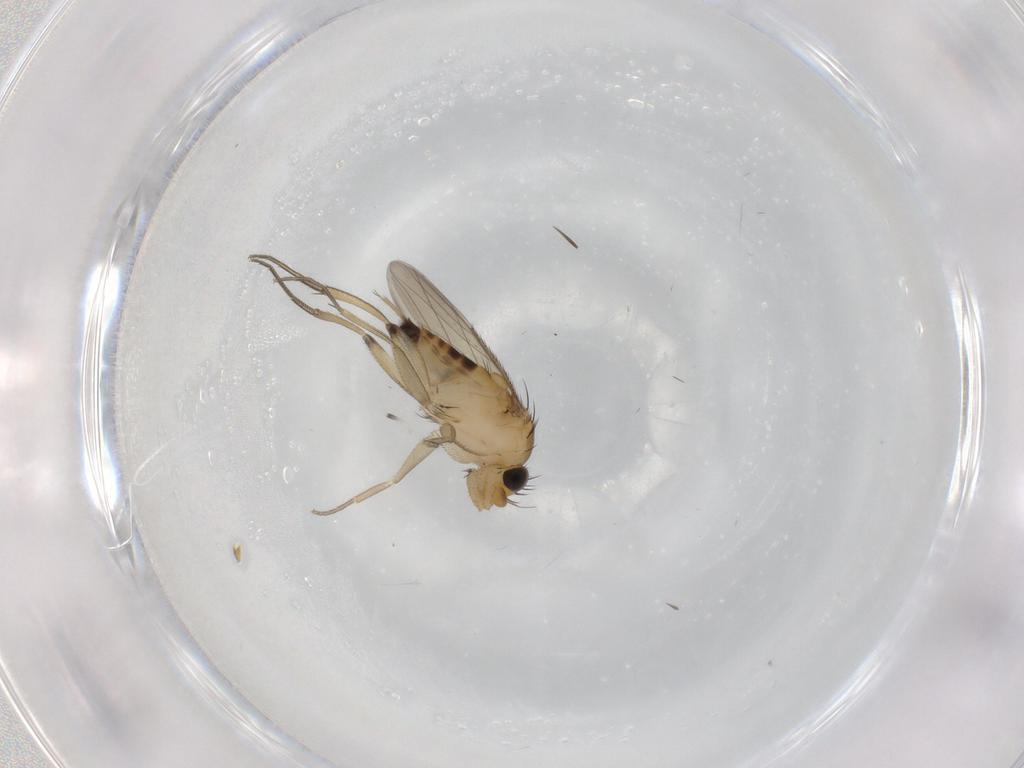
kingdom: Animalia
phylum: Arthropoda
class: Insecta
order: Diptera
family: Phoridae
